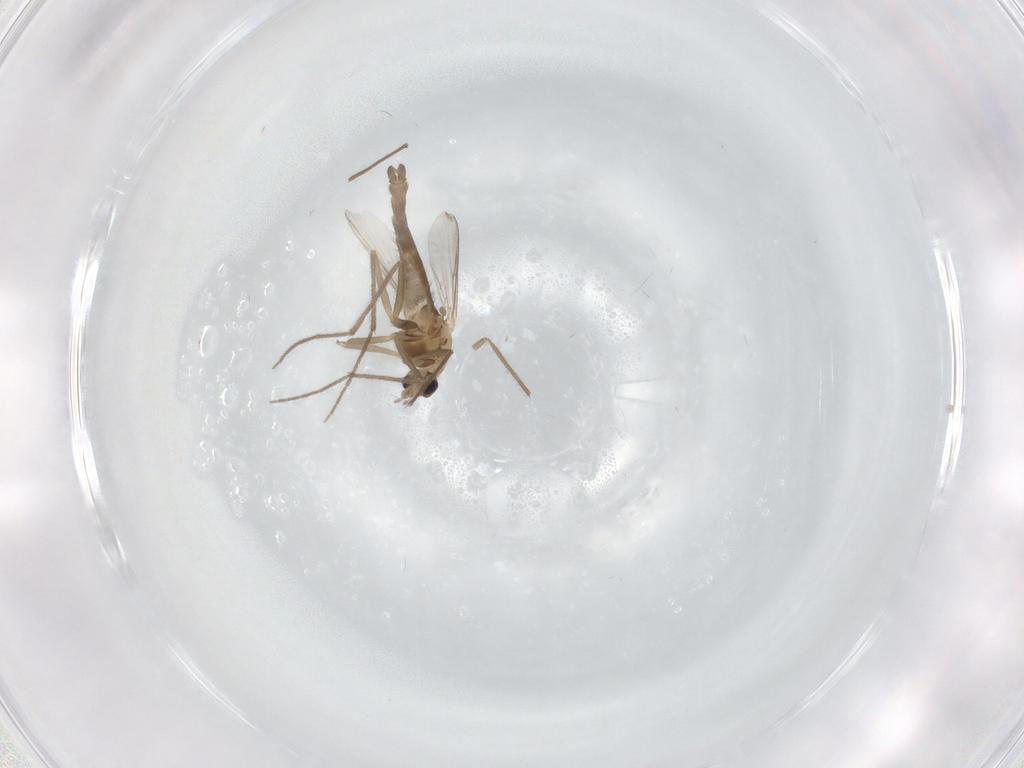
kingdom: Animalia
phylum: Arthropoda
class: Insecta
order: Diptera
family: Chironomidae
